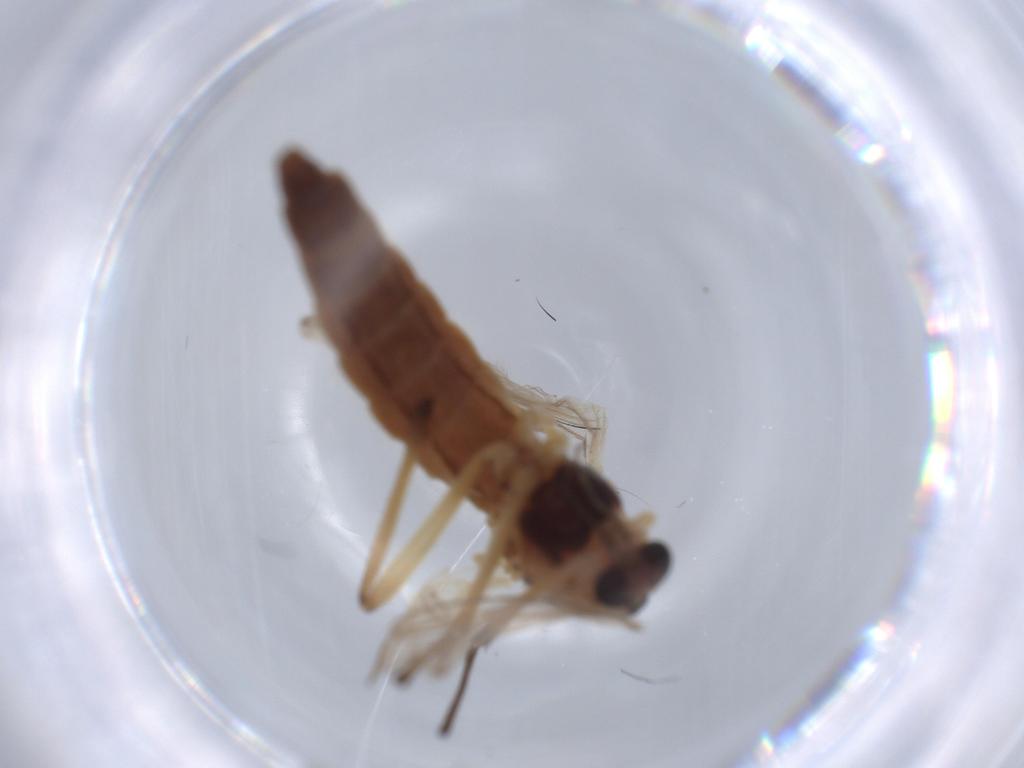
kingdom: Animalia
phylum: Arthropoda
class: Insecta
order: Diptera
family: Chironomidae
